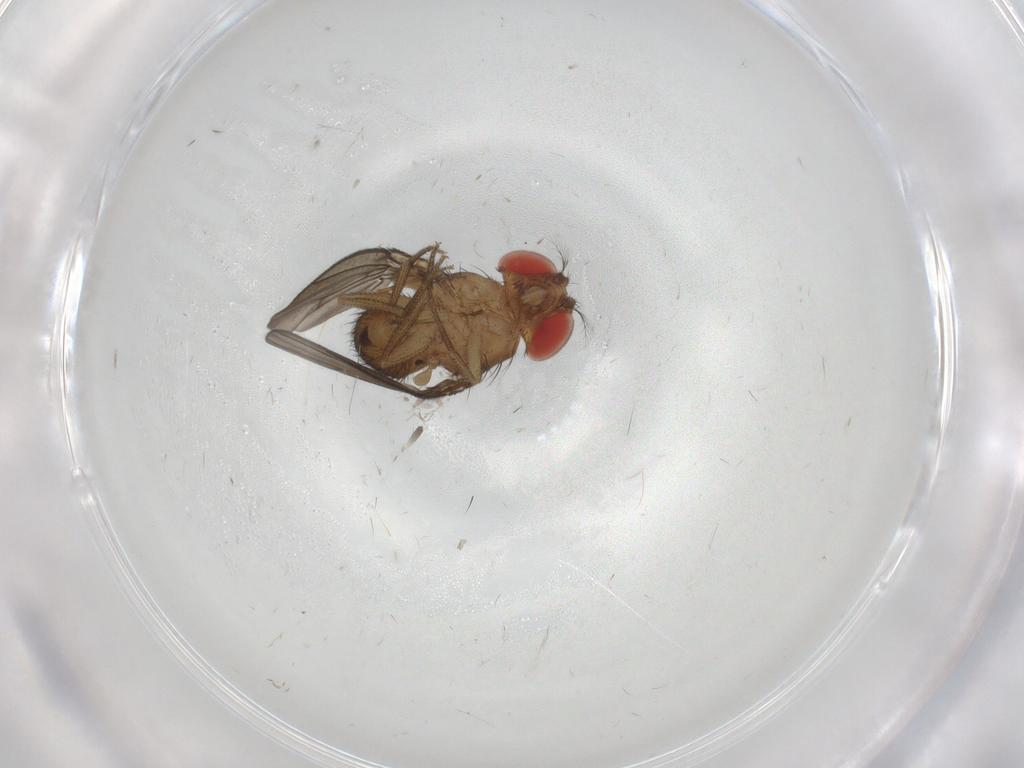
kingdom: Animalia
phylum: Arthropoda
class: Insecta
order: Diptera
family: Drosophilidae
